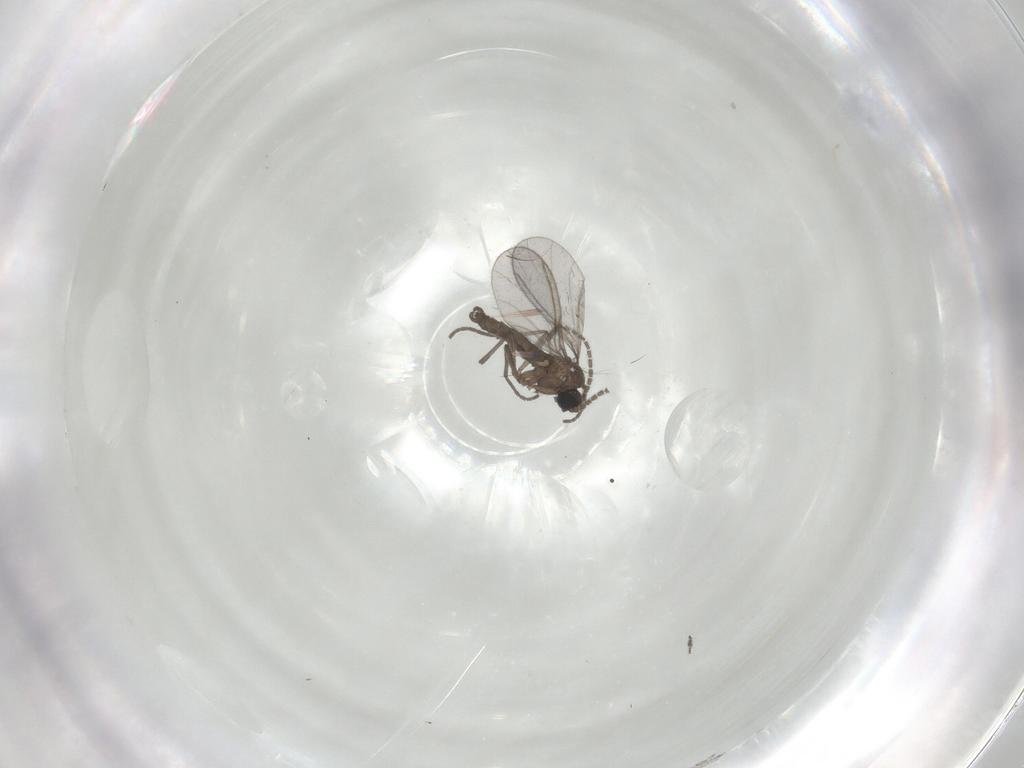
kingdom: Animalia
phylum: Arthropoda
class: Insecta
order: Diptera
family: Sciaridae
